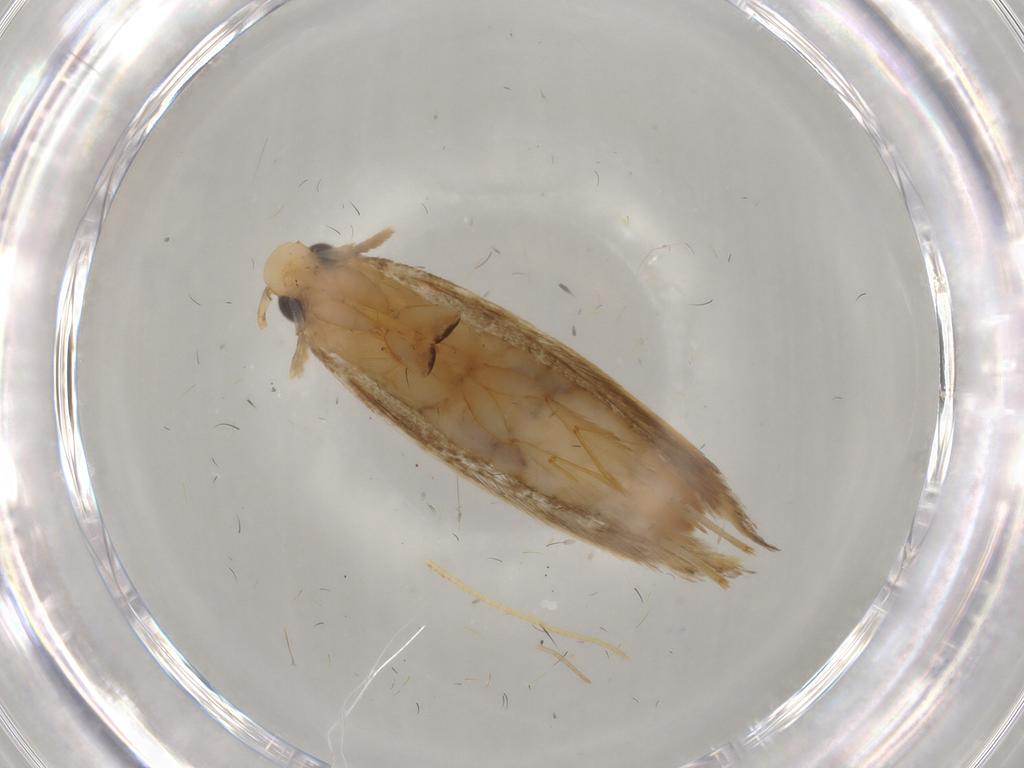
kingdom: Animalia
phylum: Arthropoda
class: Insecta
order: Lepidoptera
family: Tineidae
